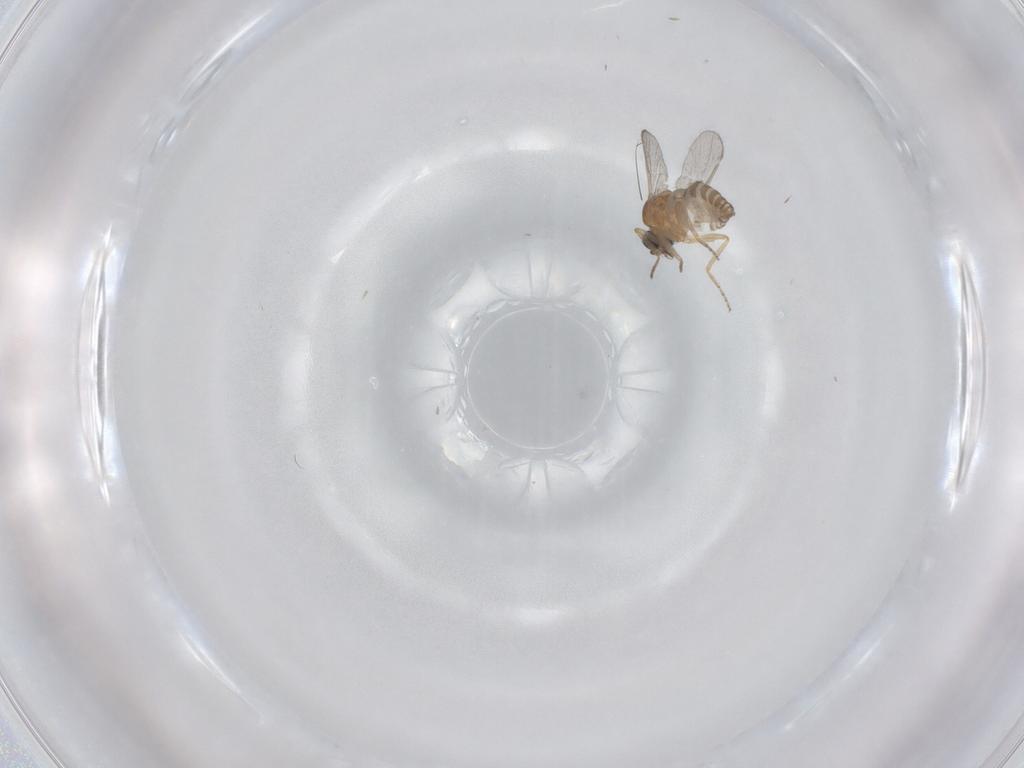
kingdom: Animalia
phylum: Arthropoda
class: Insecta
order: Diptera
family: Ceratopogonidae
